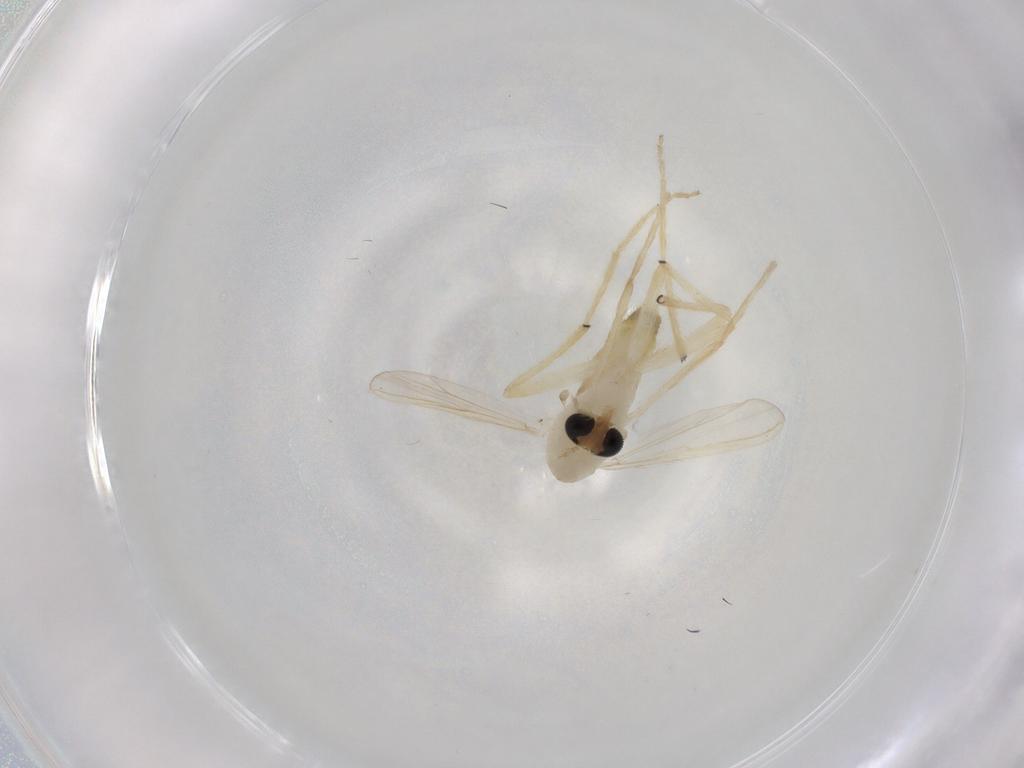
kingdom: Animalia
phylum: Arthropoda
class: Insecta
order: Diptera
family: Chironomidae
